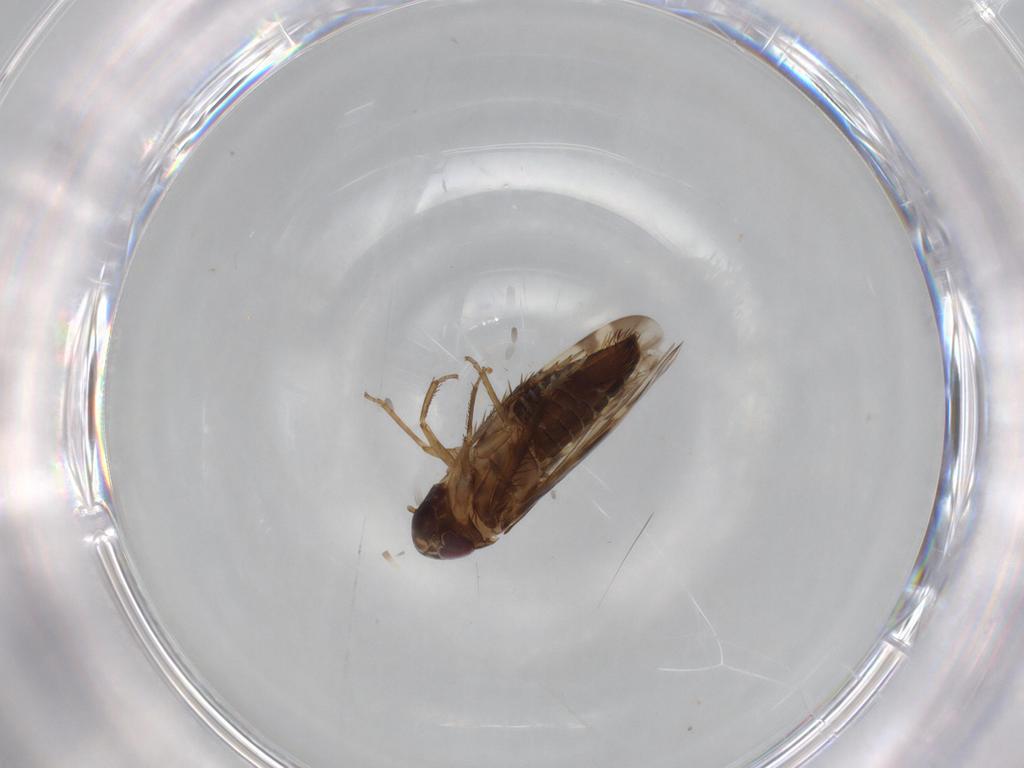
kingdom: Animalia
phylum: Arthropoda
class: Insecta
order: Hemiptera
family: Cicadellidae
